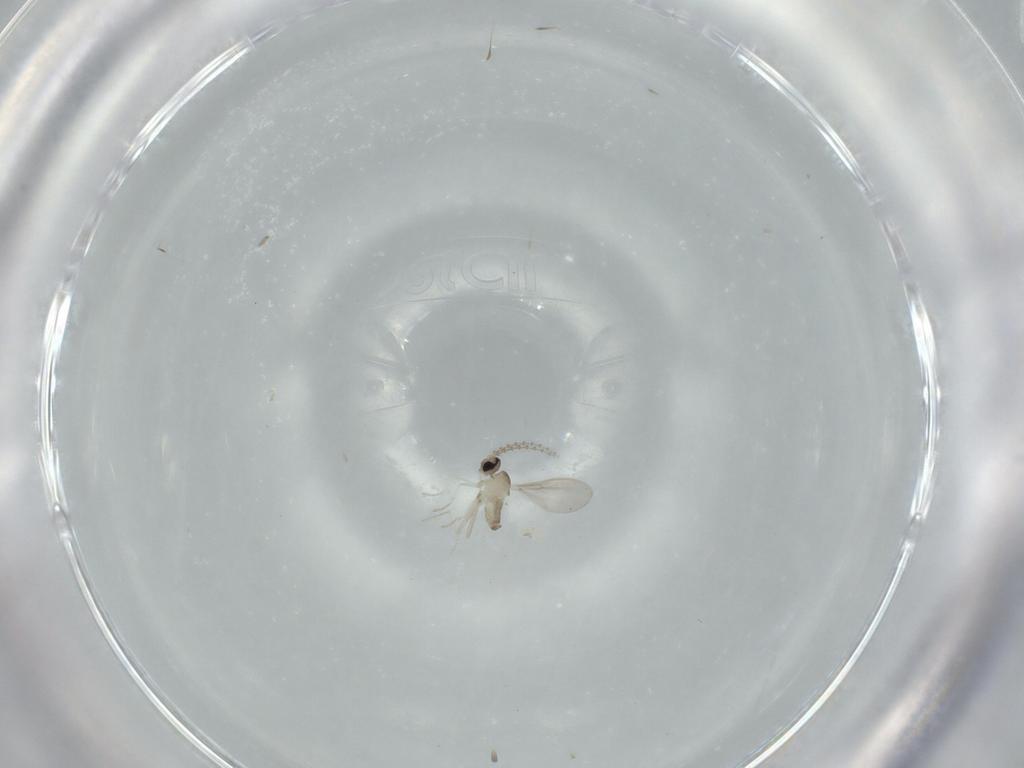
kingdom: Animalia
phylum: Arthropoda
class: Insecta
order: Diptera
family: Cecidomyiidae
